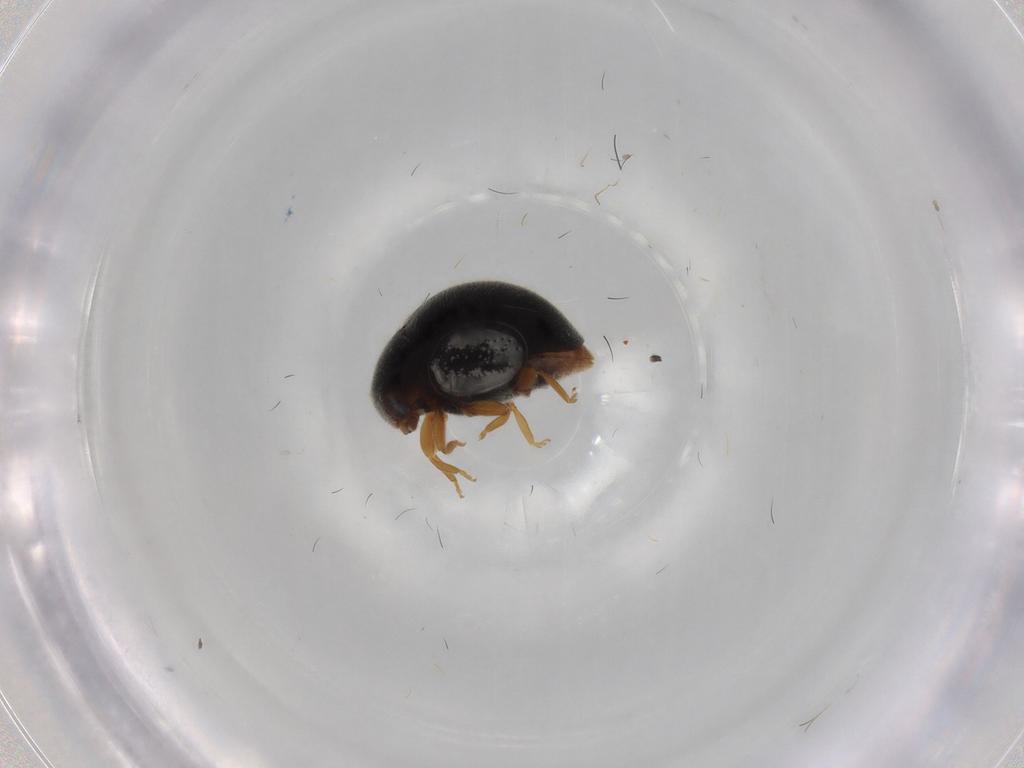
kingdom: Animalia
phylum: Arthropoda
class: Insecta
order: Coleoptera
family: Coccinellidae
